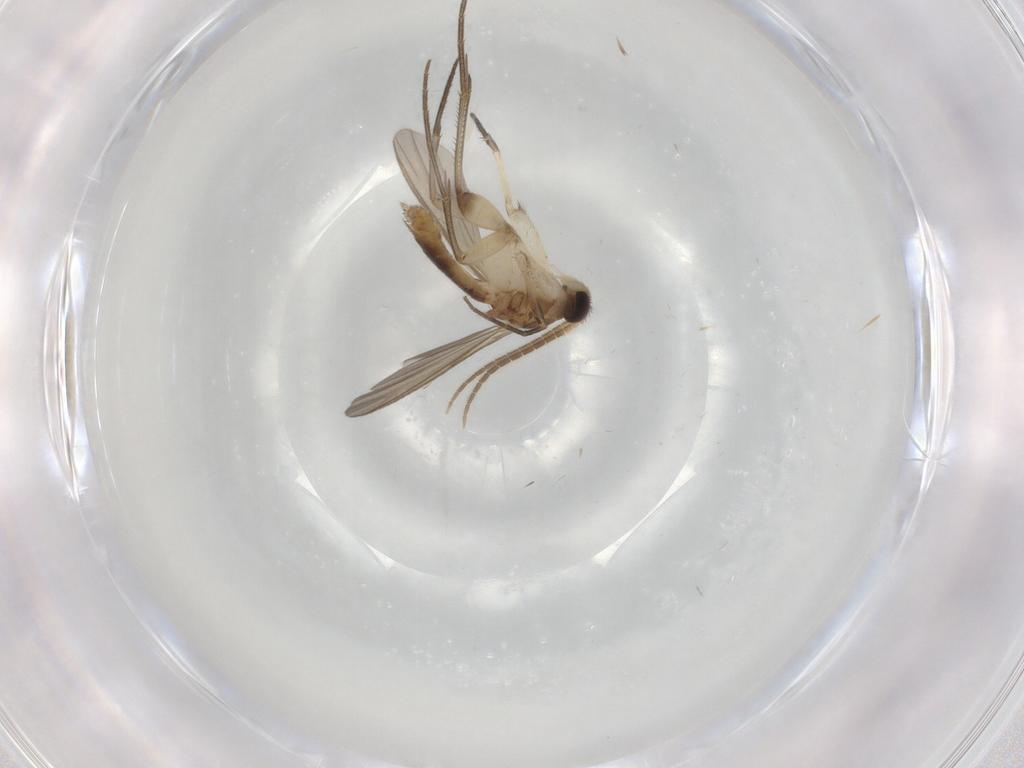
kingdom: Animalia
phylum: Arthropoda
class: Insecta
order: Diptera
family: Mycetophilidae
